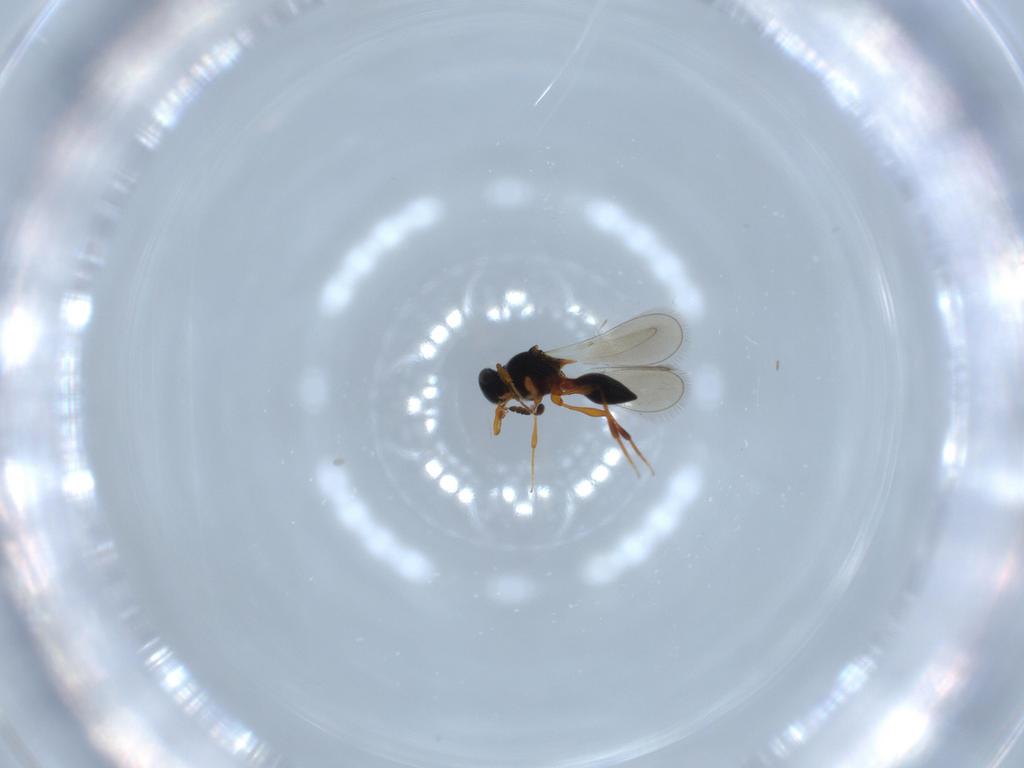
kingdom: Animalia
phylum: Arthropoda
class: Insecta
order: Hymenoptera
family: Platygastridae
